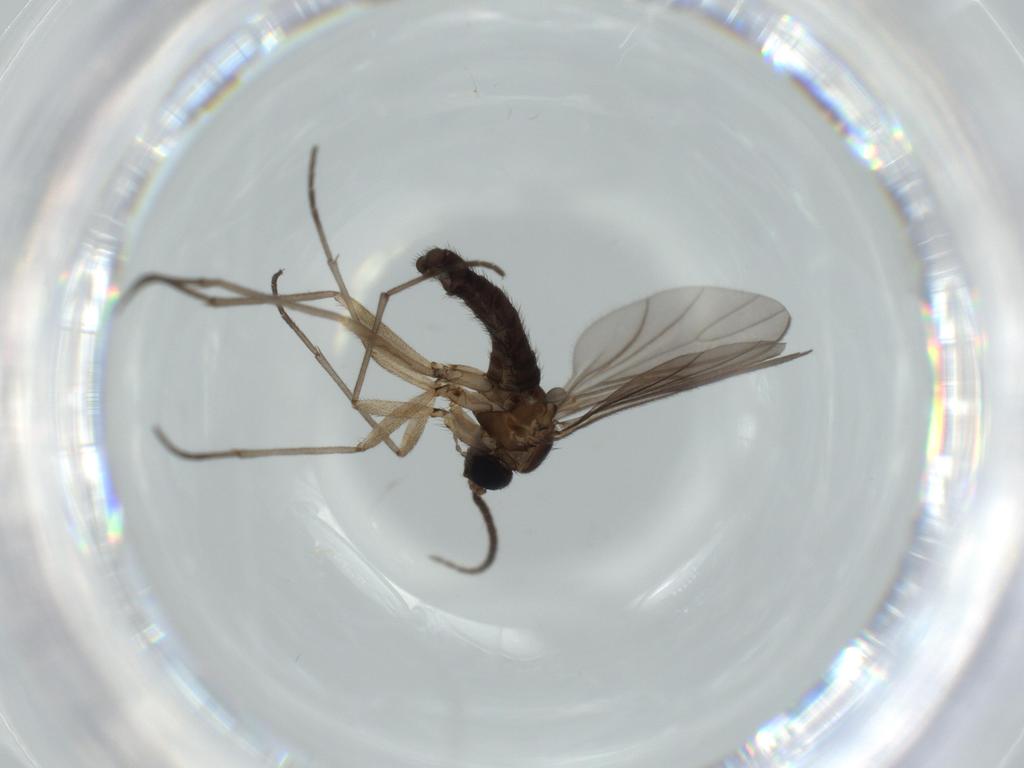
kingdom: Animalia
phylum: Arthropoda
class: Insecta
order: Diptera
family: Sciaridae
